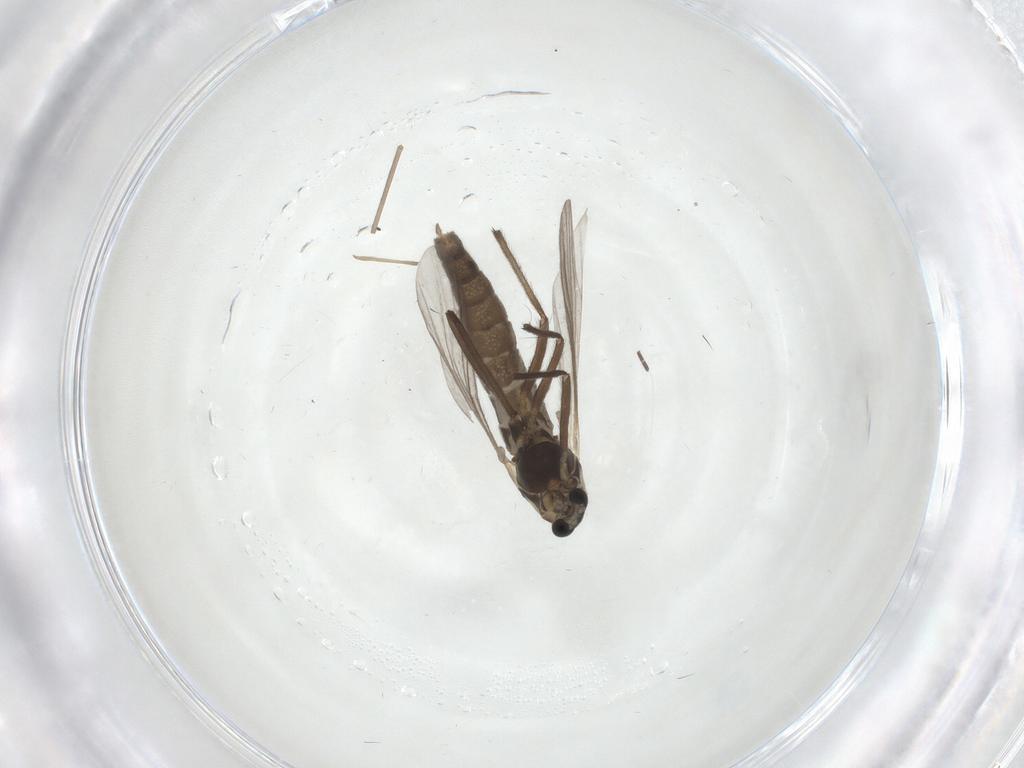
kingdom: Animalia
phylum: Arthropoda
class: Insecta
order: Diptera
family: Chironomidae
